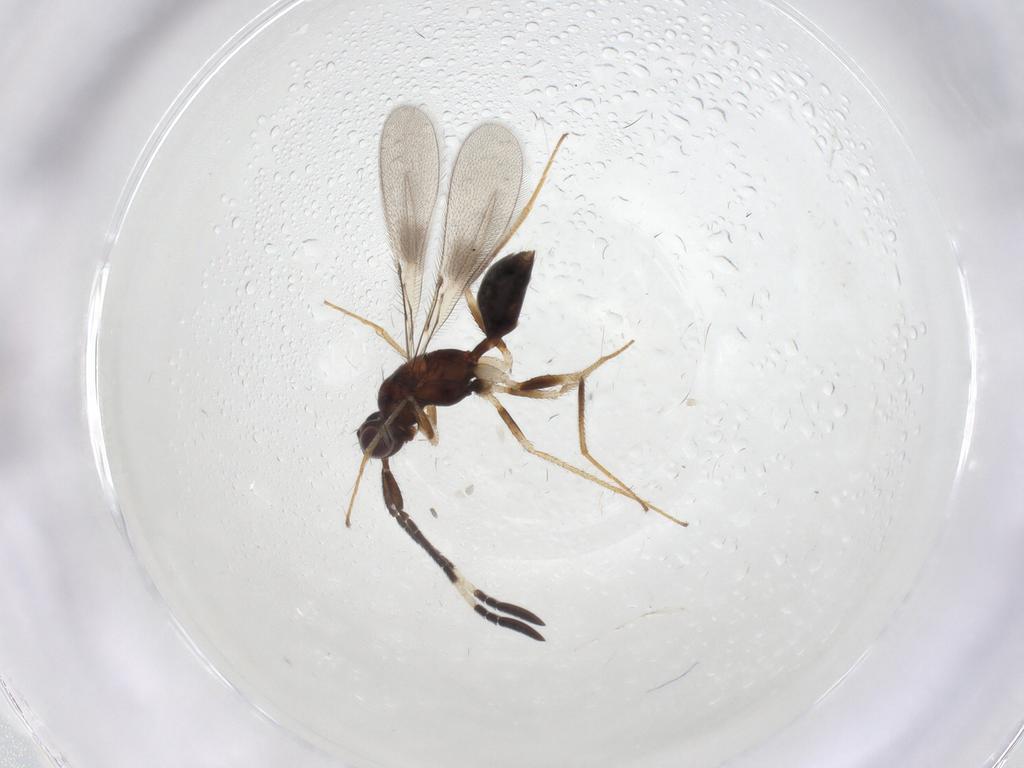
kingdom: Animalia
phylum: Arthropoda
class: Insecta
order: Hymenoptera
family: Mymaridae
